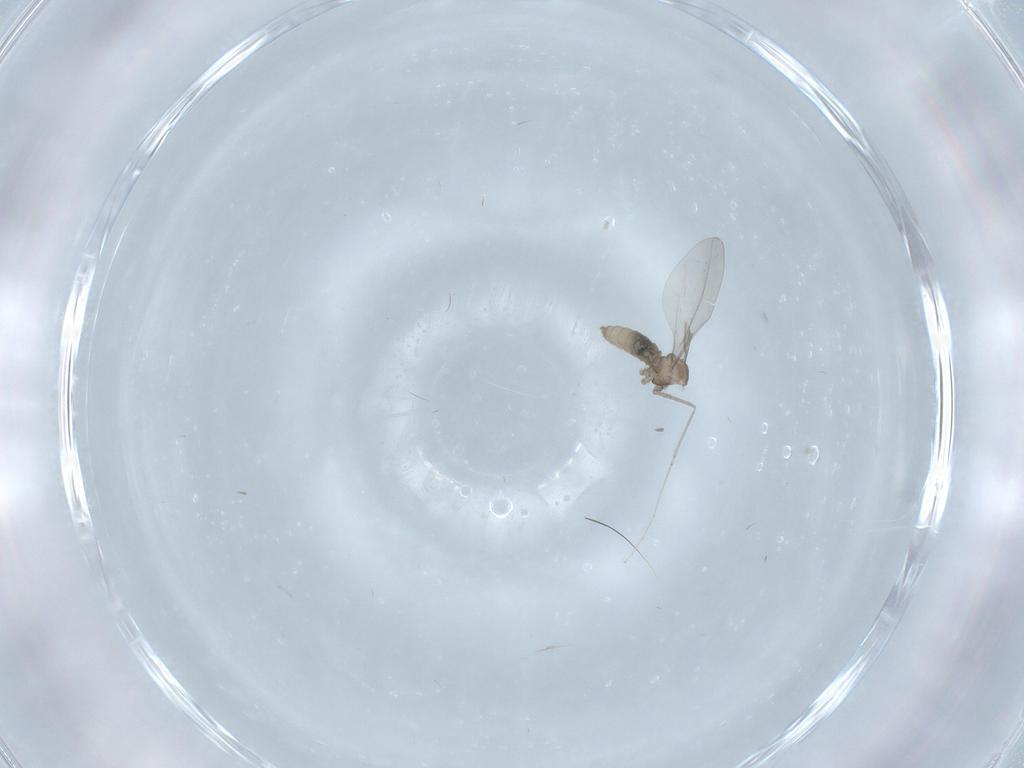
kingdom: Animalia
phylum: Arthropoda
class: Insecta
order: Diptera
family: Cecidomyiidae
